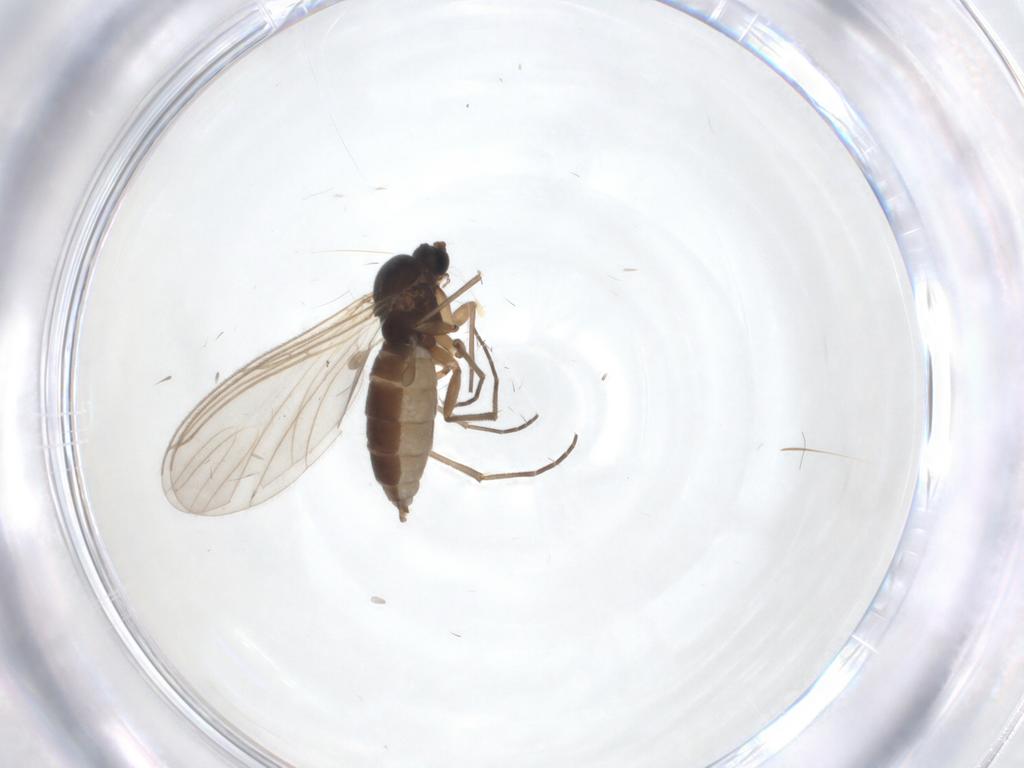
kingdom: Animalia
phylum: Arthropoda
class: Insecta
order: Diptera
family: Sciaridae
